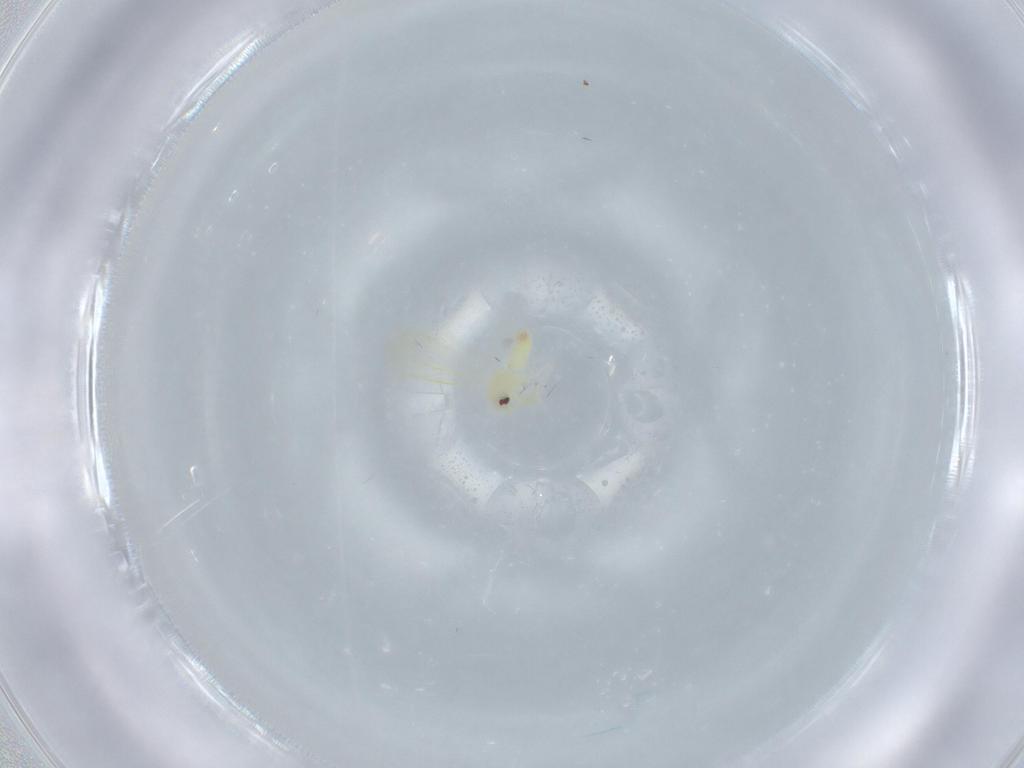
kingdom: Animalia
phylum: Arthropoda
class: Insecta
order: Hemiptera
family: Aleyrodidae
